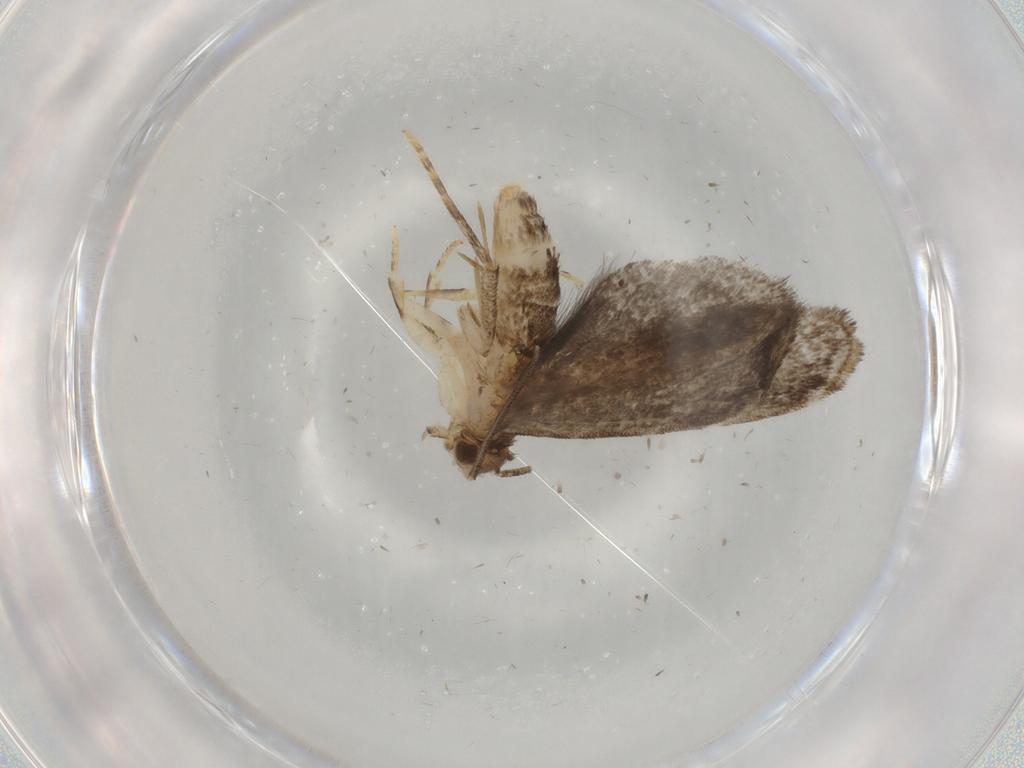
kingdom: Animalia
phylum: Arthropoda
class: Insecta
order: Lepidoptera
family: Dryadaulidae
